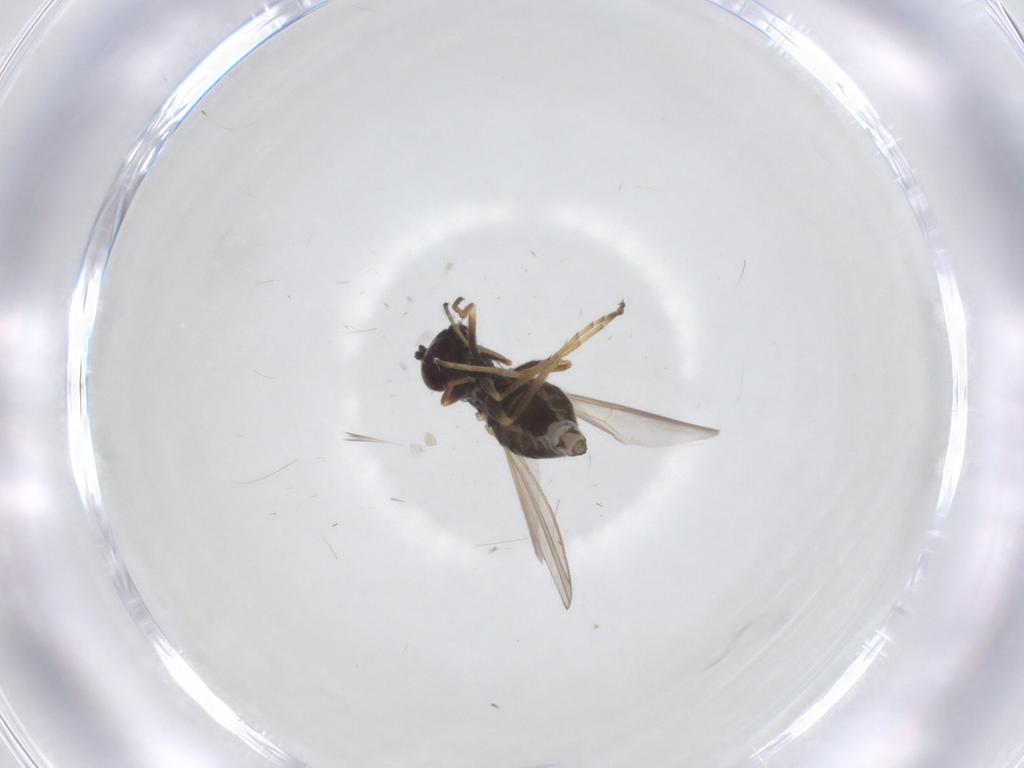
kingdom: Animalia
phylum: Arthropoda
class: Insecta
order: Diptera
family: Dolichopodidae
